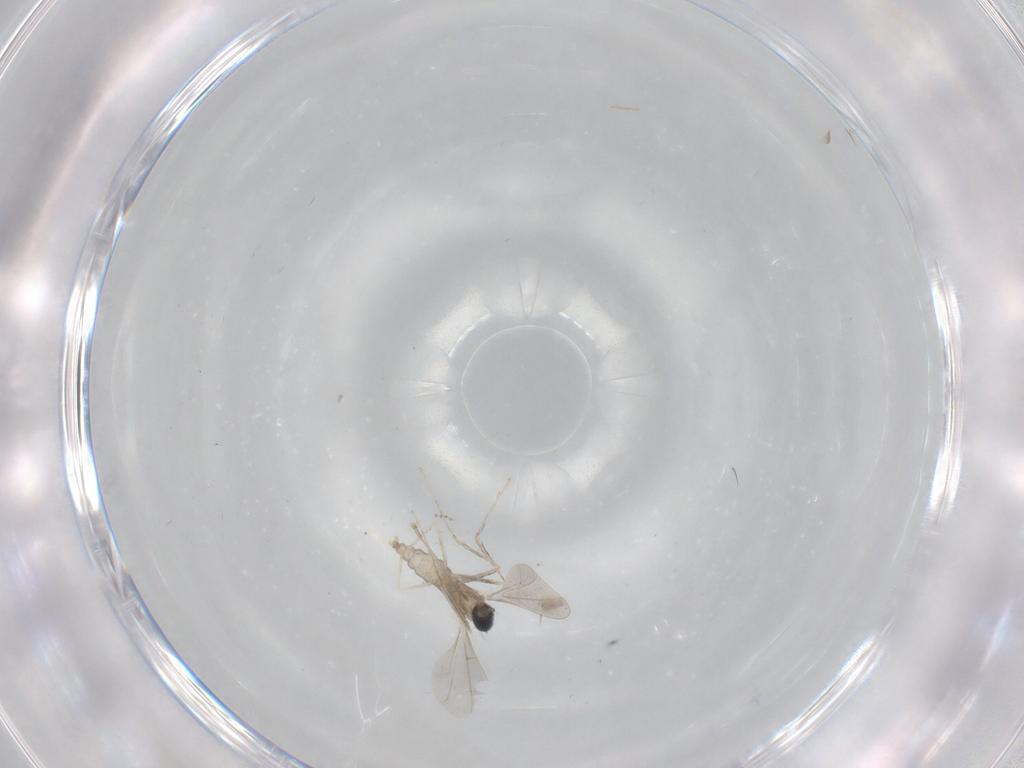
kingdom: Animalia
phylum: Arthropoda
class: Insecta
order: Diptera
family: Cecidomyiidae
